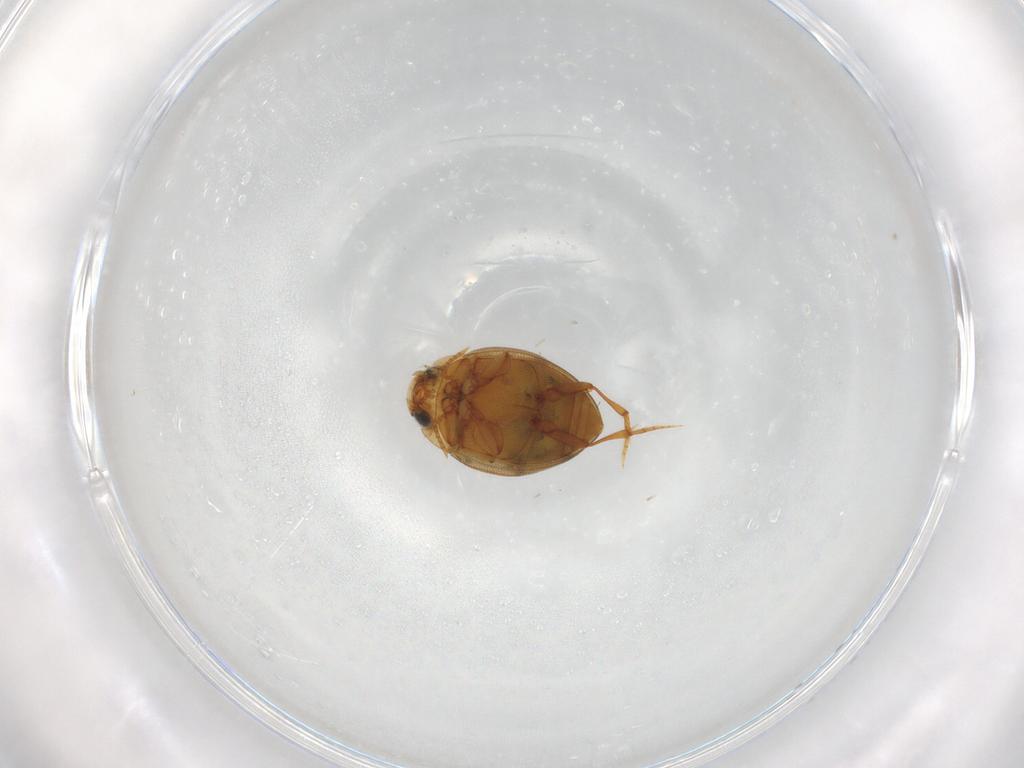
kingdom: Animalia
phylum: Arthropoda
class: Insecta
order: Coleoptera
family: Dytiscidae
